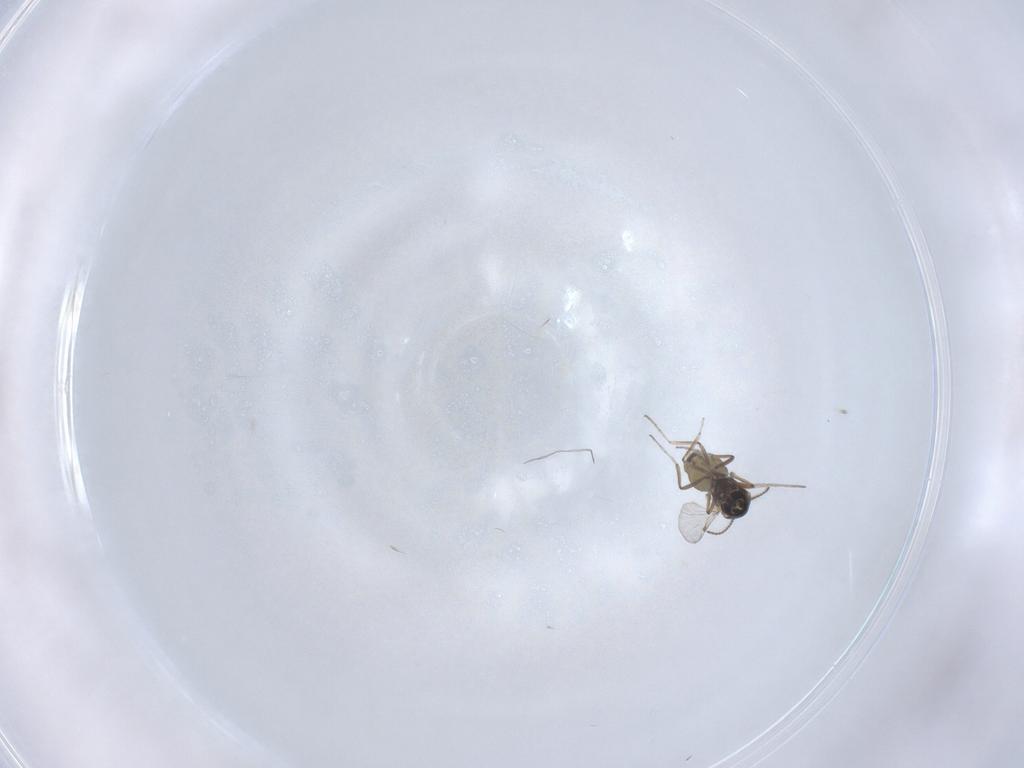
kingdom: Animalia
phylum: Arthropoda
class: Insecta
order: Diptera
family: Ceratopogonidae
